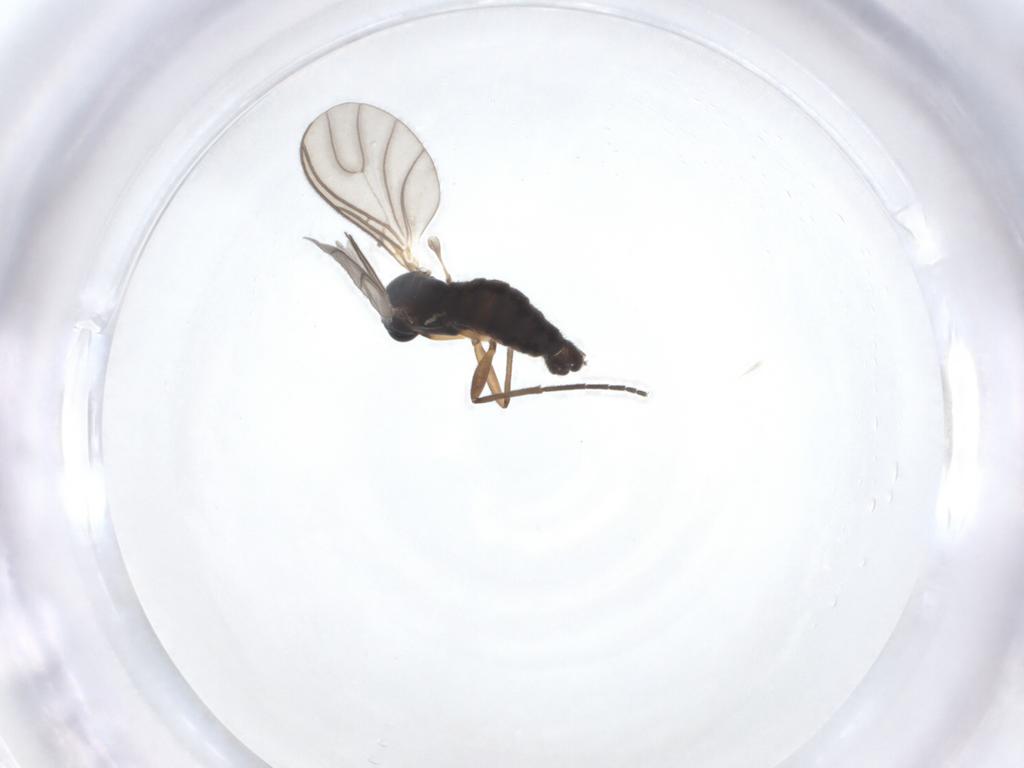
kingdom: Animalia
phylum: Arthropoda
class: Insecta
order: Diptera
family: Sciaridae
